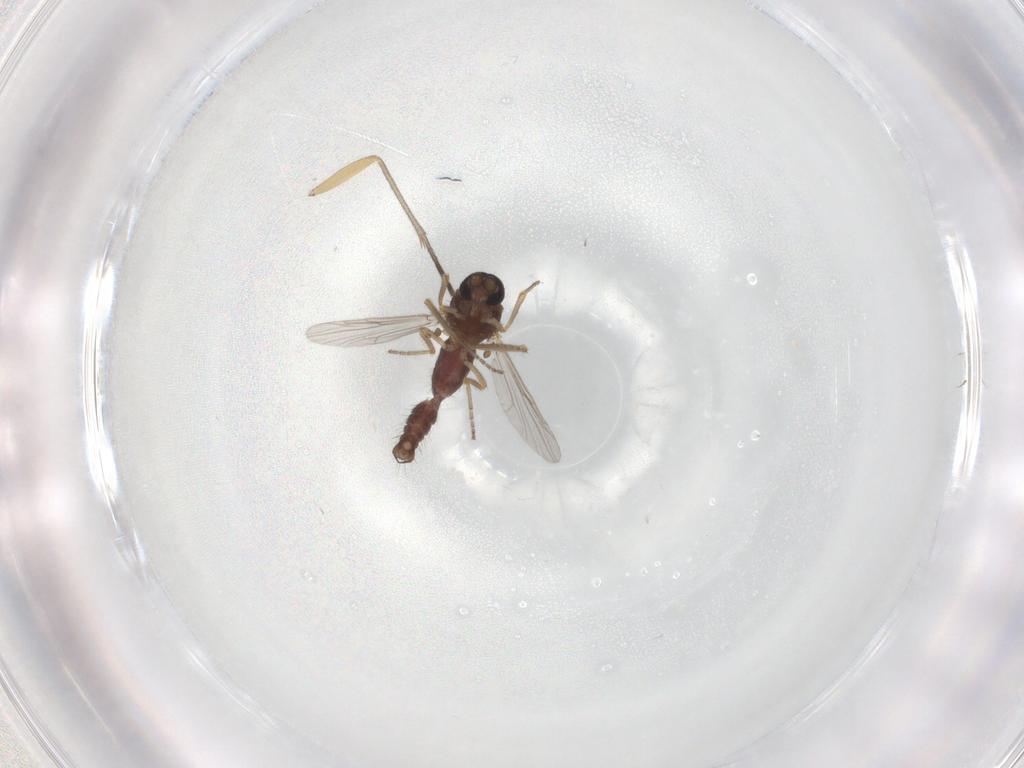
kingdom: Animalia
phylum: Arthropoda
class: Insecta
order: Diptera
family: Ceratopogonidae
